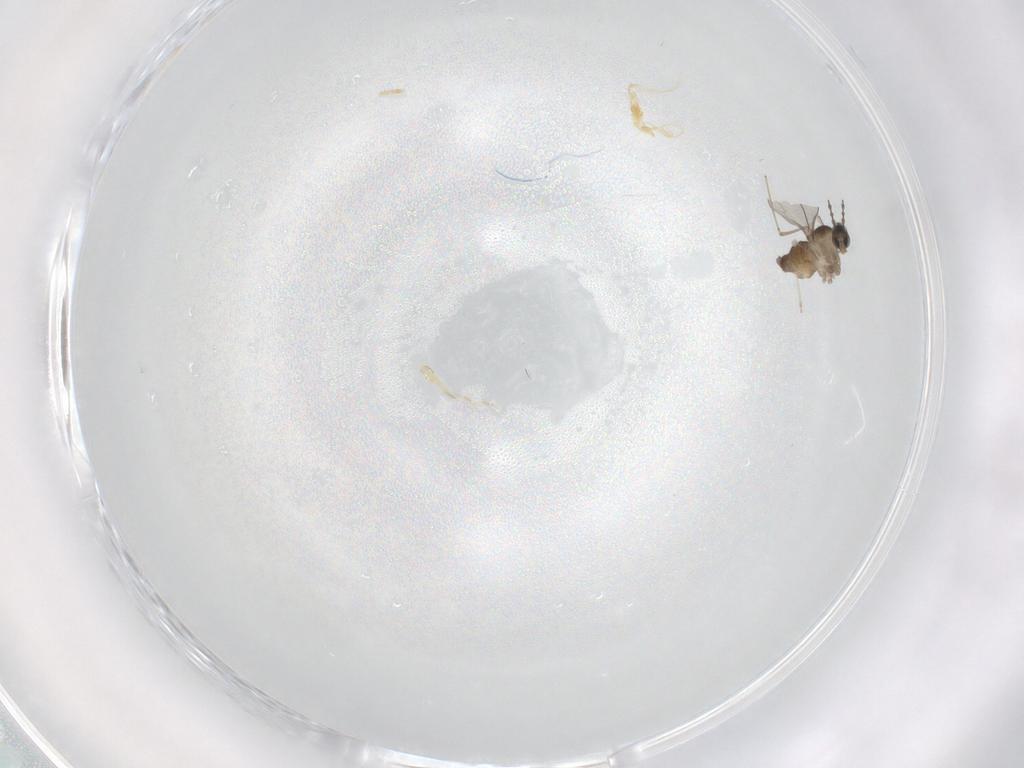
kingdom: Animalia
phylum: Arthropoda
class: Insecta
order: Diptera
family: Cecidomyiidae
